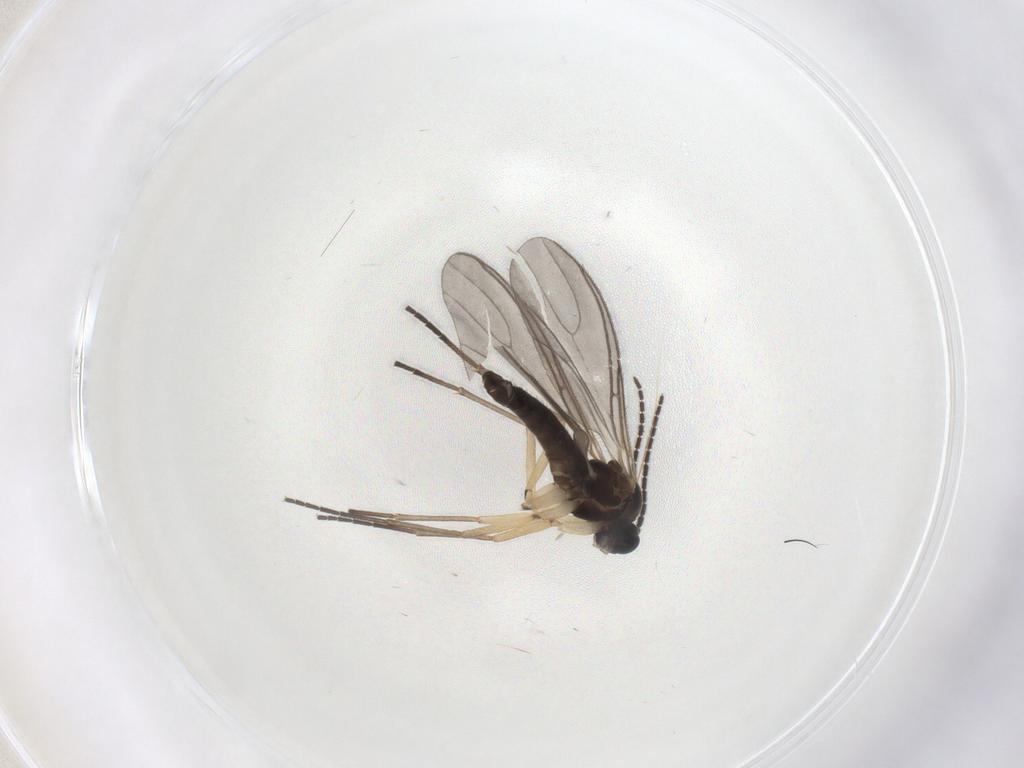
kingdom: Animalia
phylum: Arthropoda
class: Insecta
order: Diptera
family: Sciaridae
